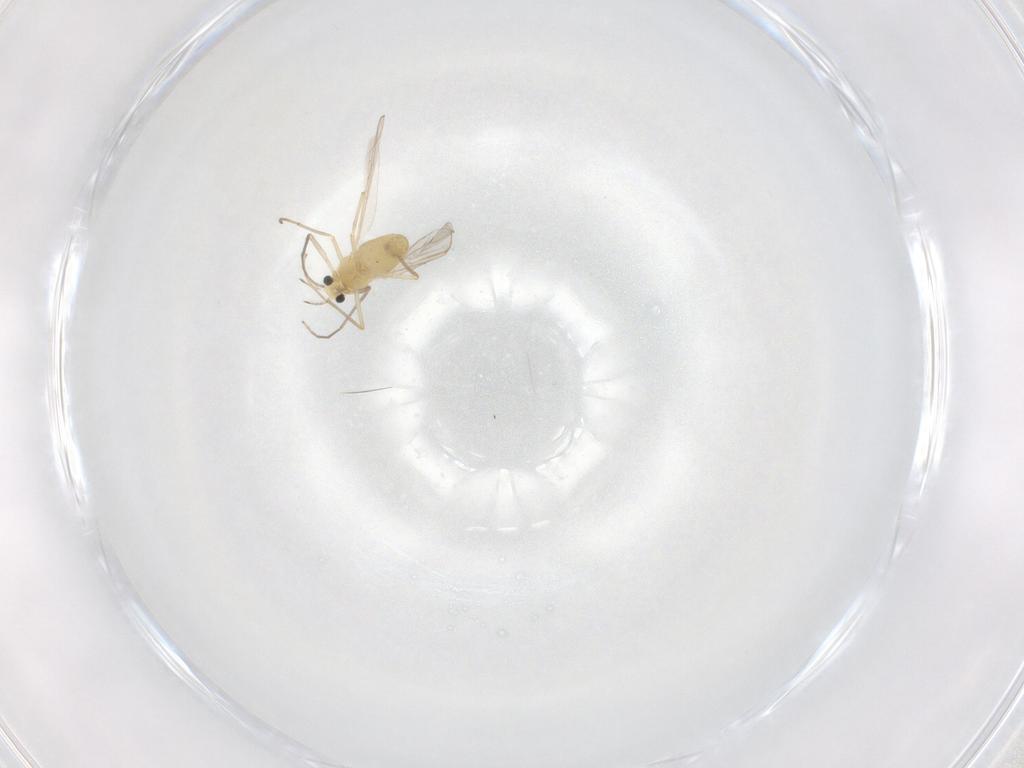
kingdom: Animalia
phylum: Arthropoda
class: Insecta
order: Diptera
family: Chironomidae
